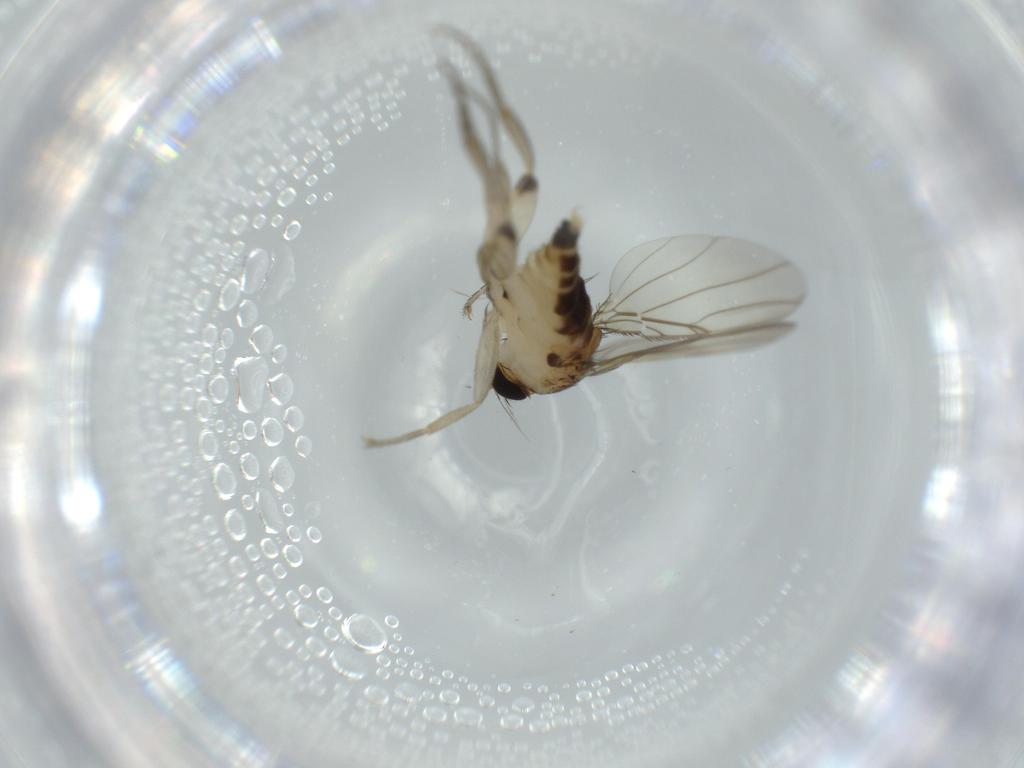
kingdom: Animalia
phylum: Arthropoda
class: Insecta
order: Diptera
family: Phoridae
